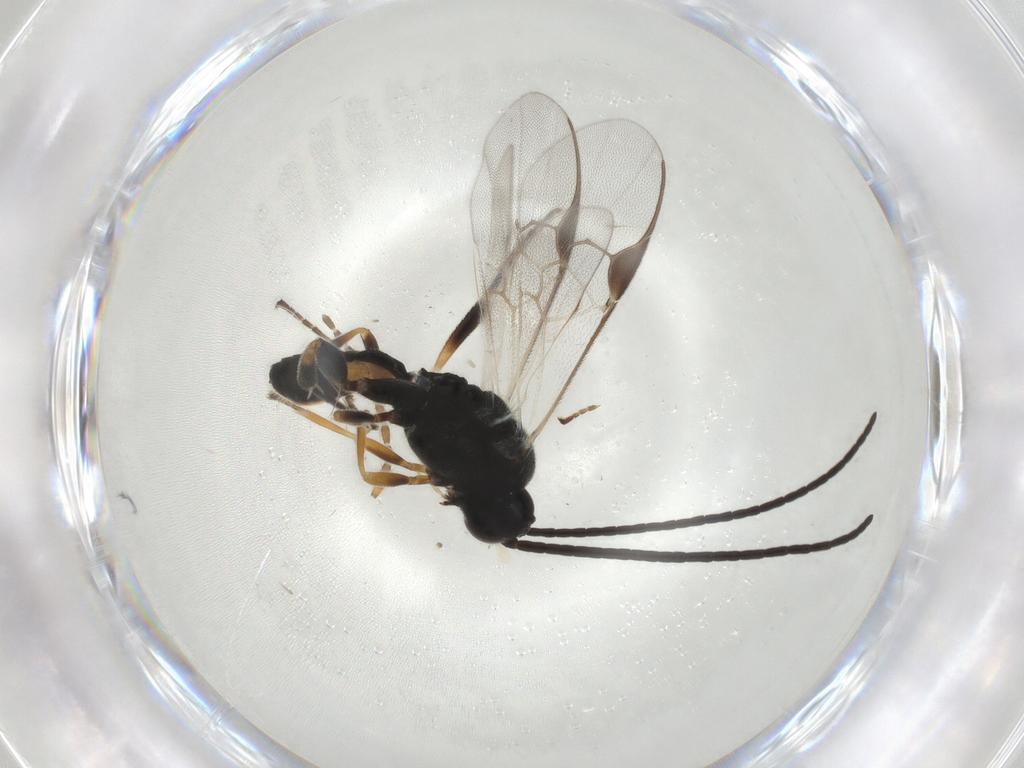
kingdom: Animalia
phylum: Arthropoda
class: Insecta
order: Hymenoptera
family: Braconidae
